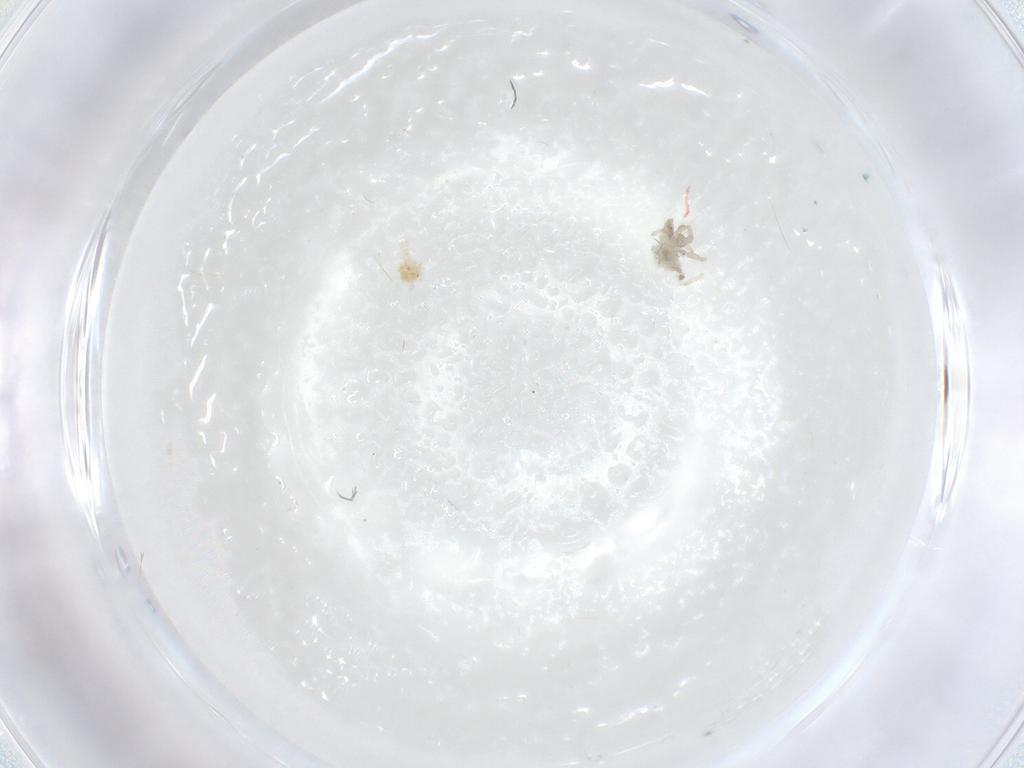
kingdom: Animalia
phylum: Arthropoda
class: Insecta
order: Psocodea
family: Caeciliusidae
